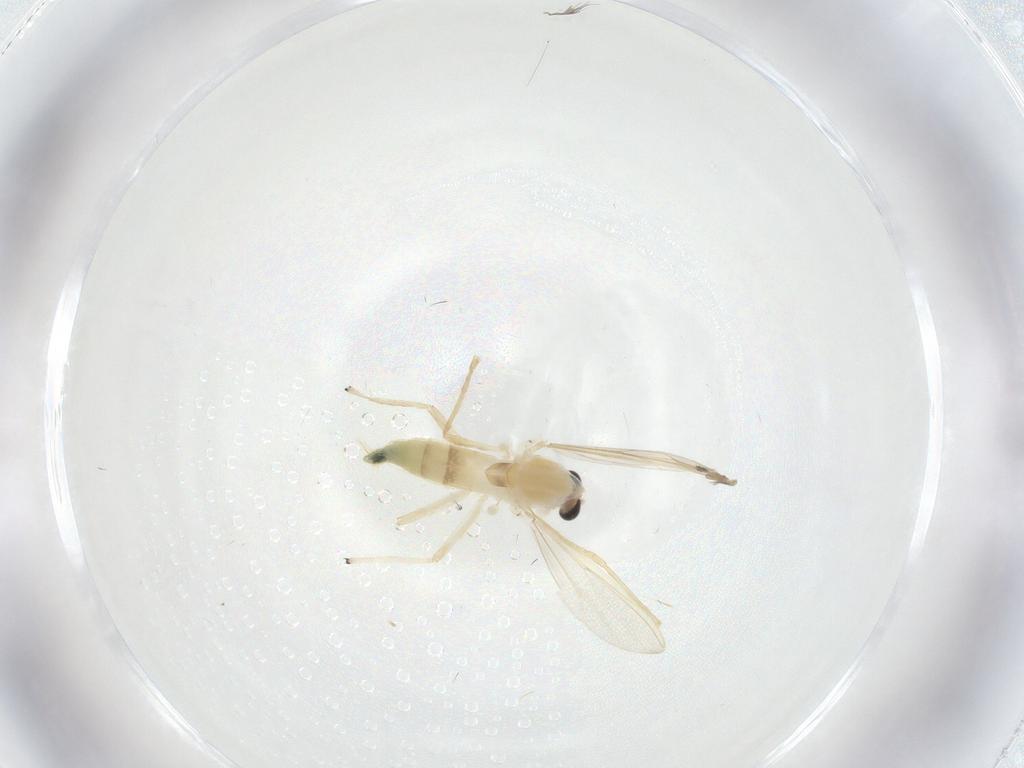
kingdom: Animalia
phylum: Arthropoda
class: Insecta
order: Diptera
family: Chironomidae
